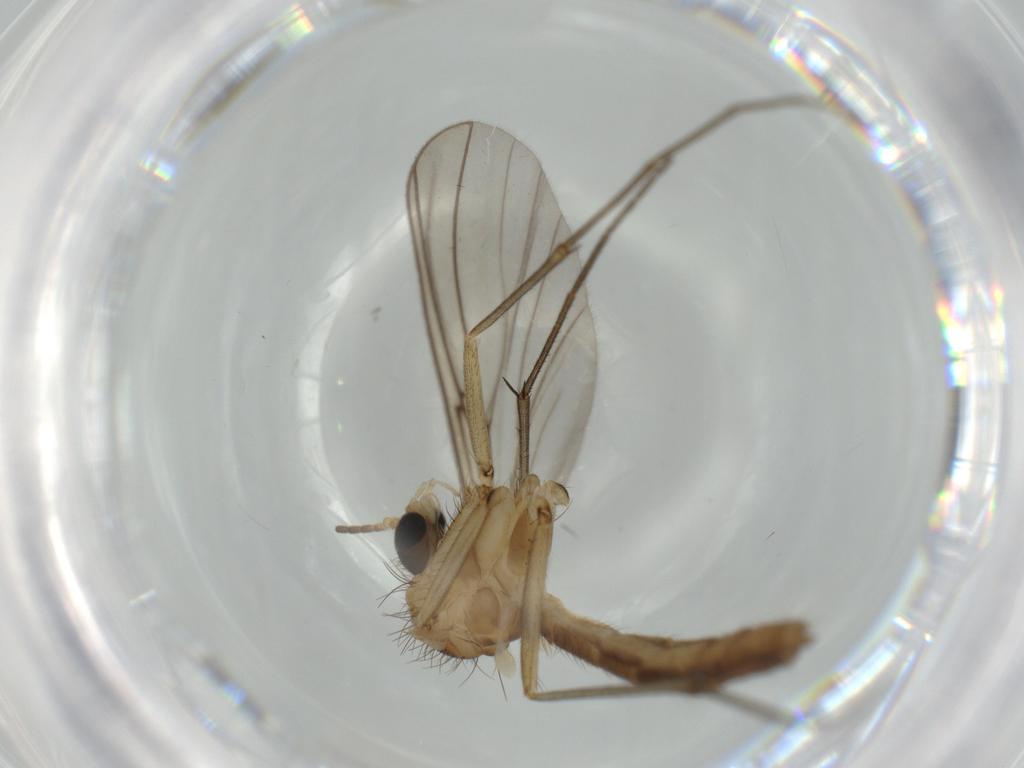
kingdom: Animalia
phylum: Arthropoda
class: Insecta
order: Diptera
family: Mycetophilidae
